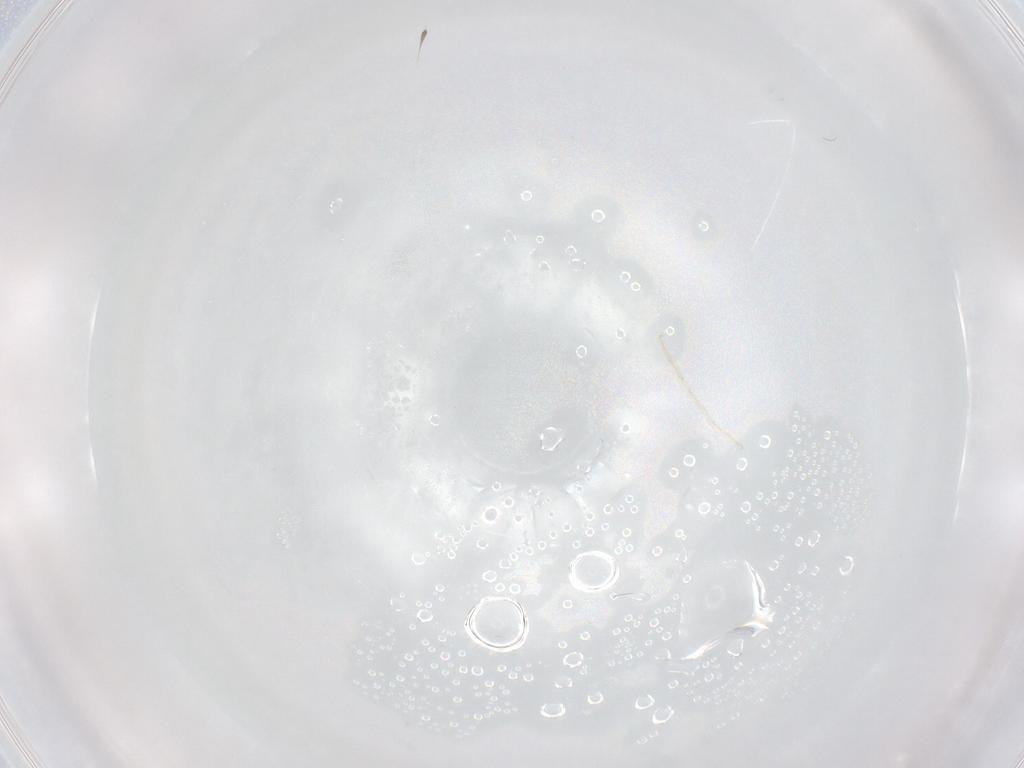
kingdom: Animalia
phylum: Arthropoda
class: Arachnida
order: Trombidiformes
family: Eupodidae
